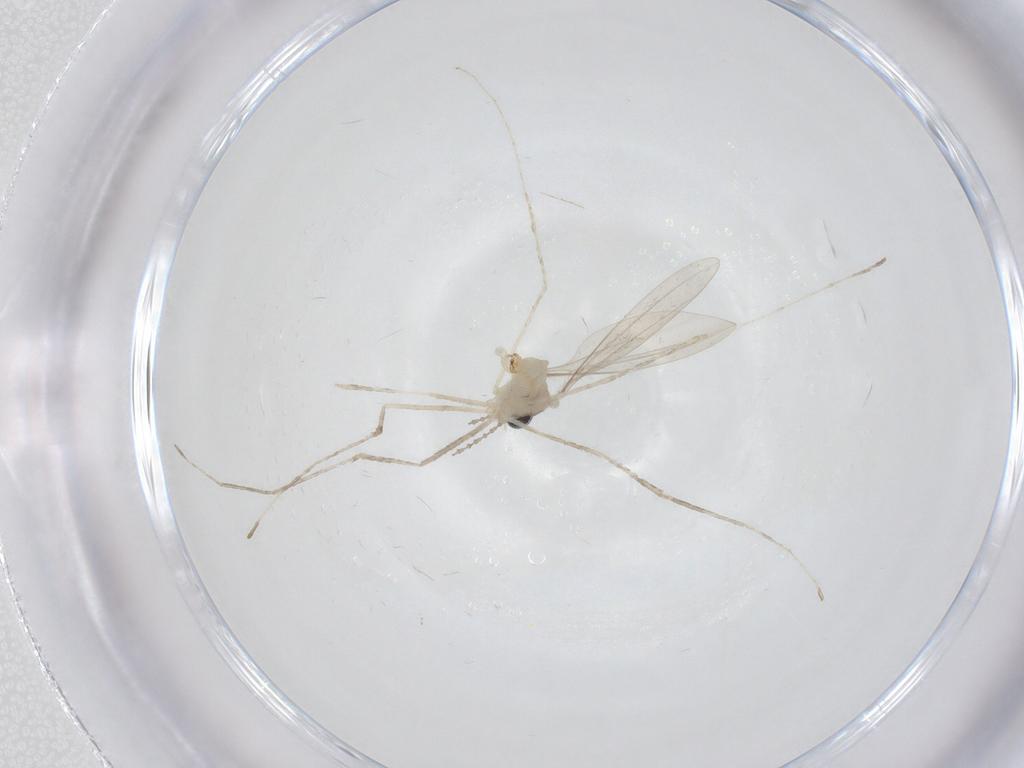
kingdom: Animalia
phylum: Arthropoda
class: Insecta
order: Diptera
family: Cecidomyiidae
